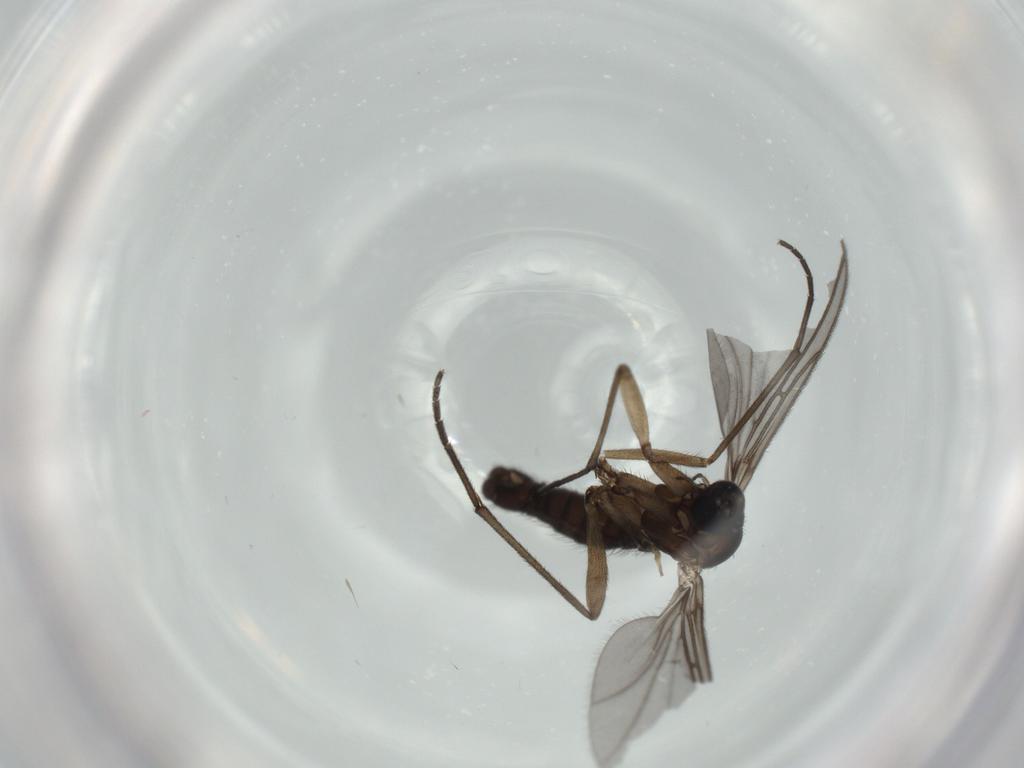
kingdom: Animalia
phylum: Arthropoda
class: Insecta
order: Diptera
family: Sciaridae
